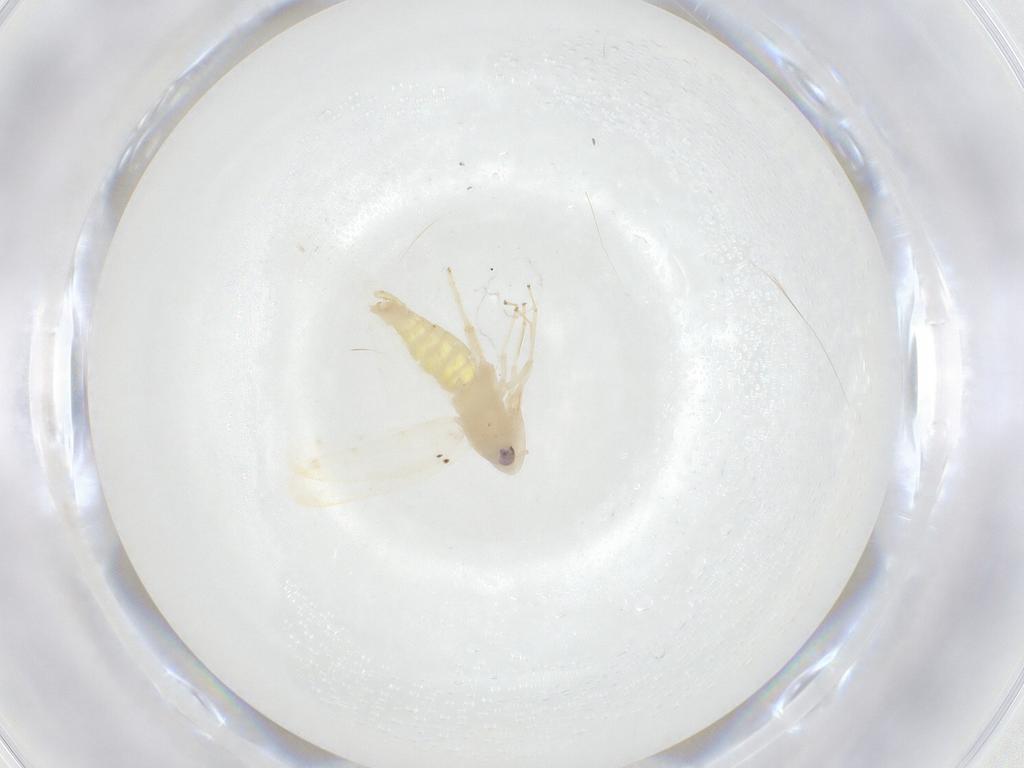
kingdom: Animalia
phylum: Arthropoda
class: Insecta
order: Hemiptera
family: Cicadellidae
